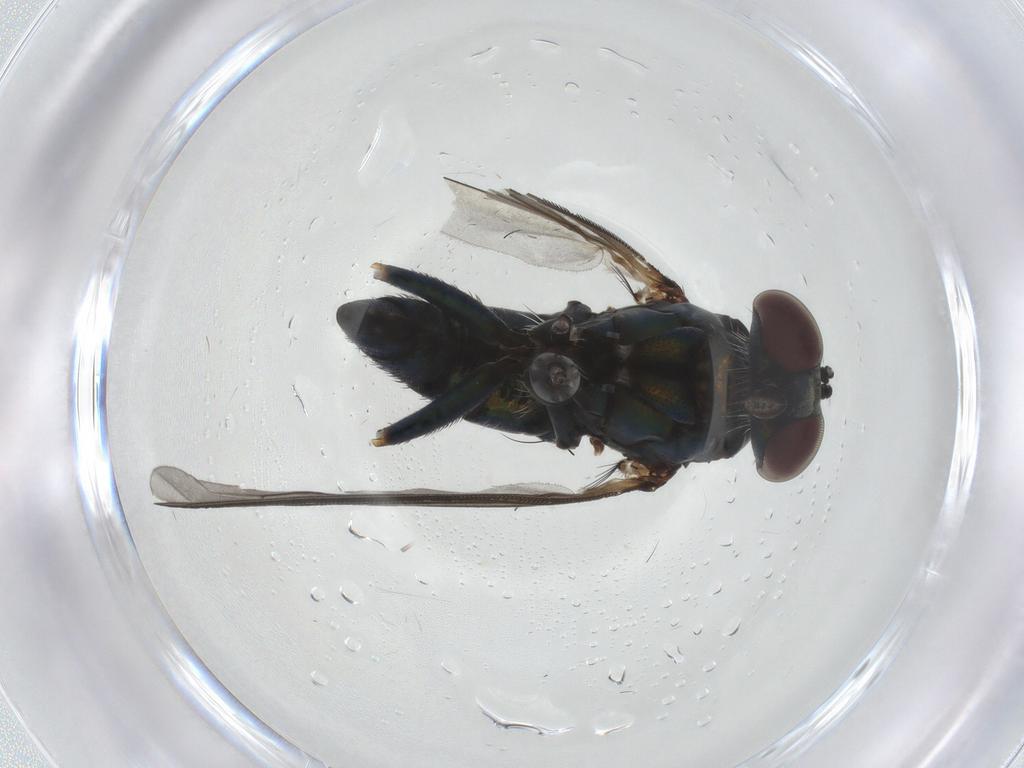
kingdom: Animalia
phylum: Arthropoda
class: Insecta
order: Diptera
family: Dolichopodidae
